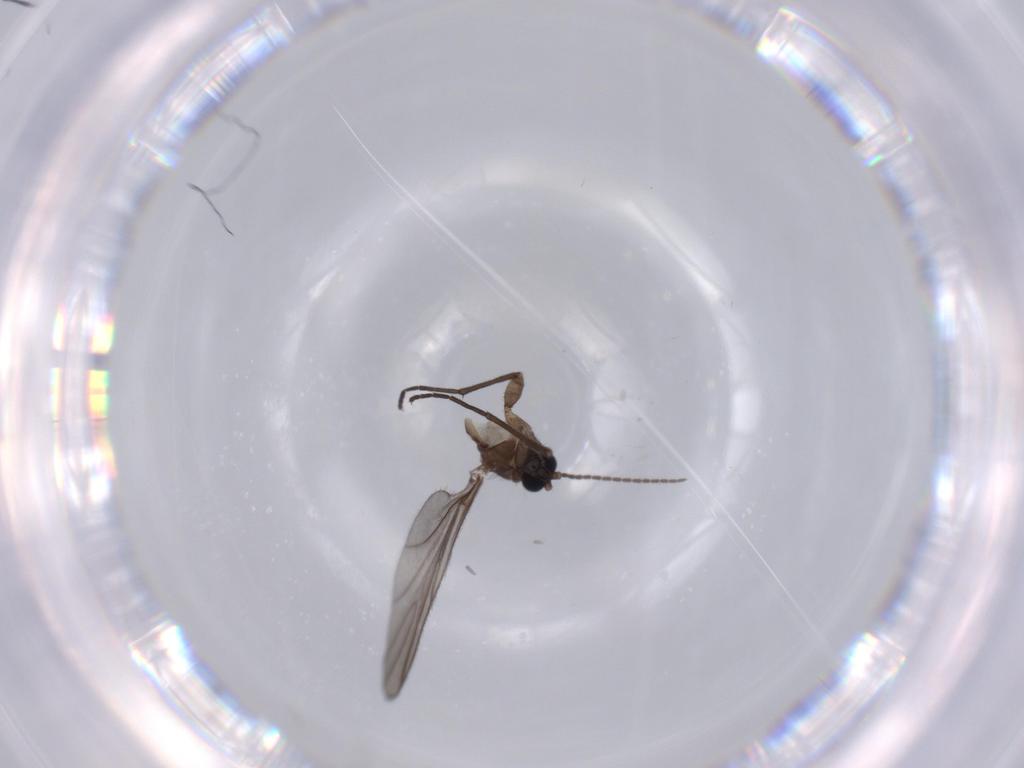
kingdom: Animalia
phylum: Arthropoda
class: Insecta
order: Diptera
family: Sciaridae
